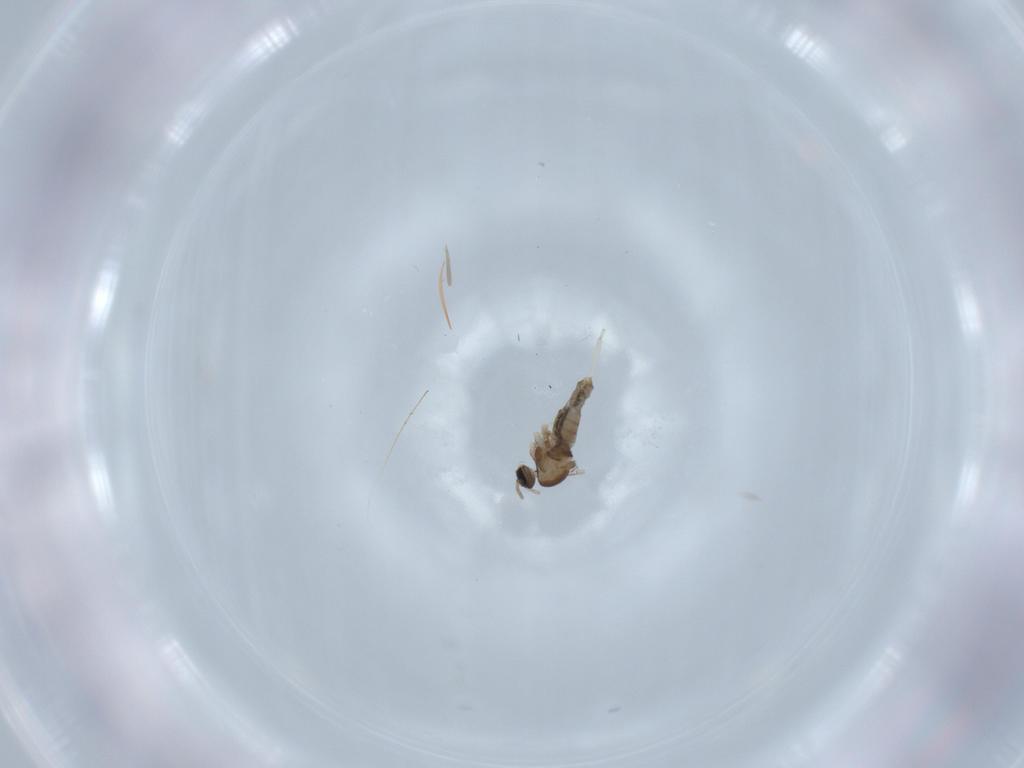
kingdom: Animalia
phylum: Arthropoda
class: Insecta
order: Diptera
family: Cecidomyiidae
